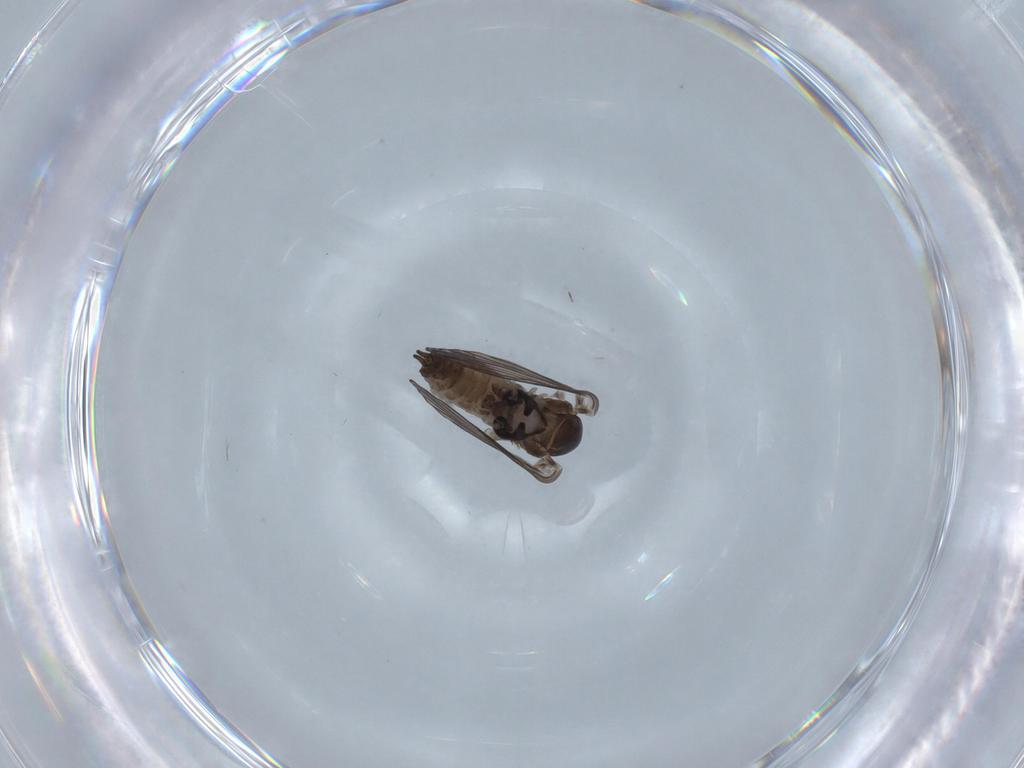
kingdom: Animalia
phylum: Arthropoda
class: Insecta
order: Diptera
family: Psychodidae
